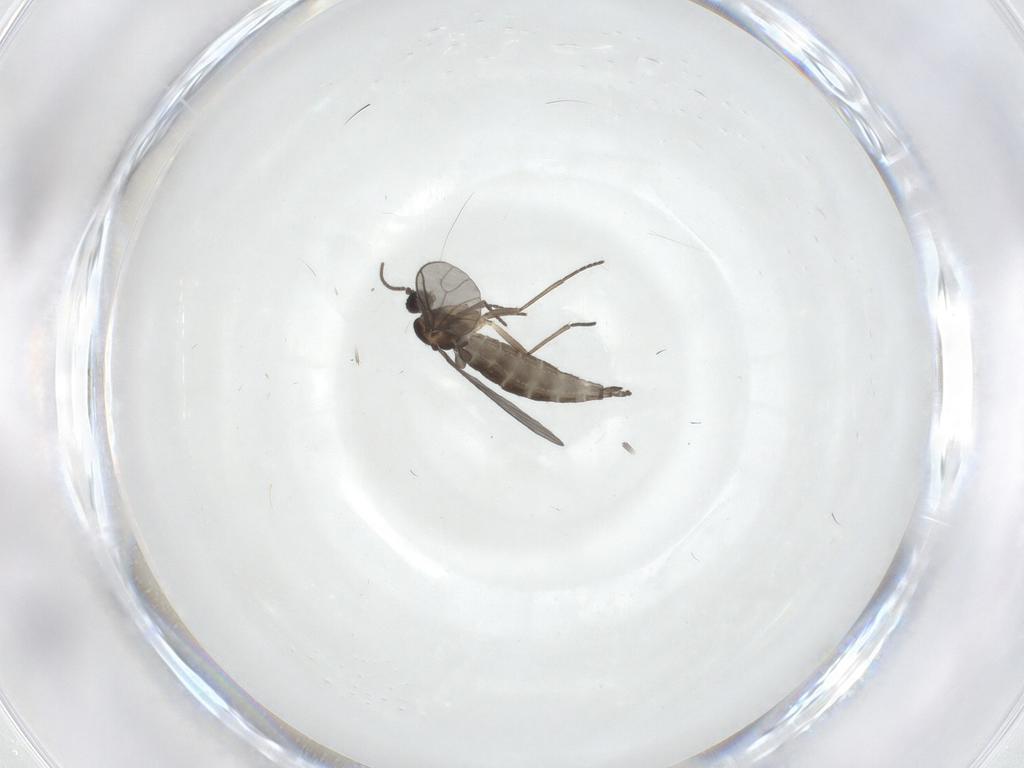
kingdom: Animalia
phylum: Arthropoda
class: Insecta
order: Diptera
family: Sciaridae
